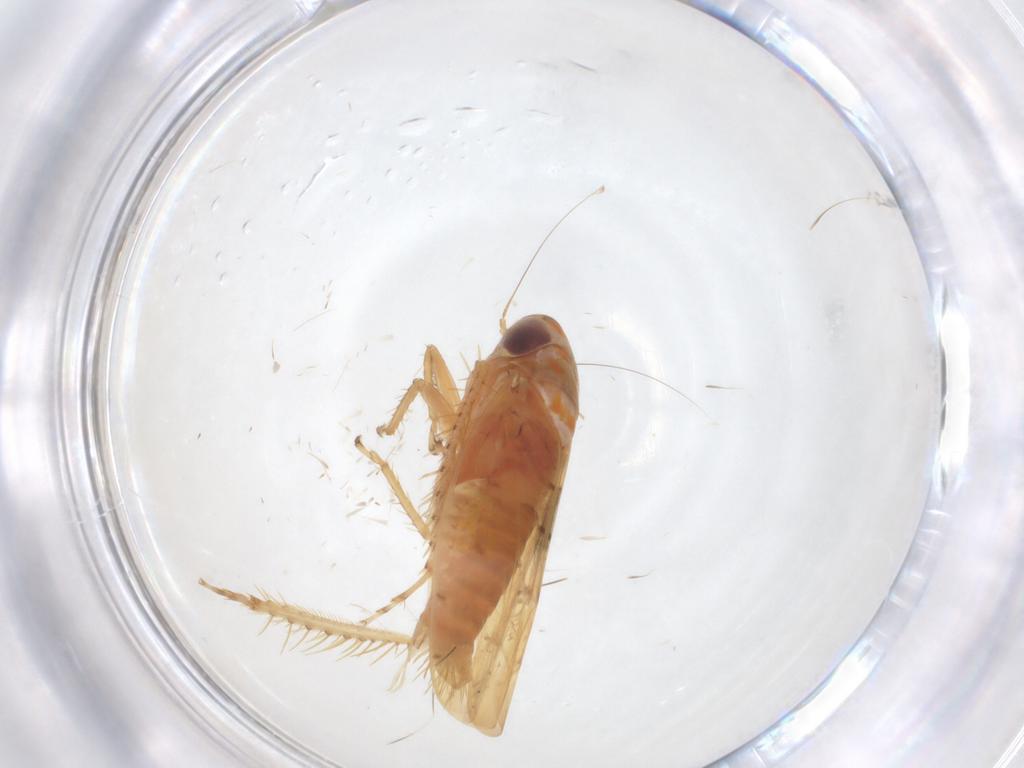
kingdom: Animalia
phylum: Arthropoda
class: Insecta
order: Hemiptera
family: Cicadellidae
